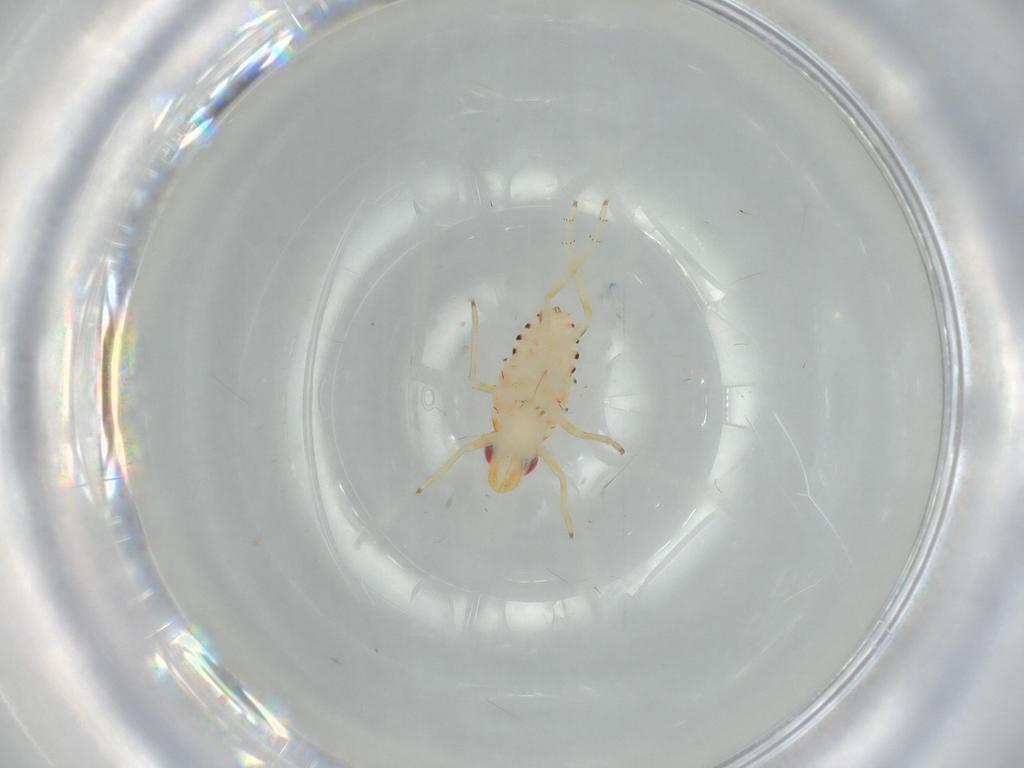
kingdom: Animalia
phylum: Arthropoda
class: Insecta
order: Hemiptera
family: Tropiduchidae
